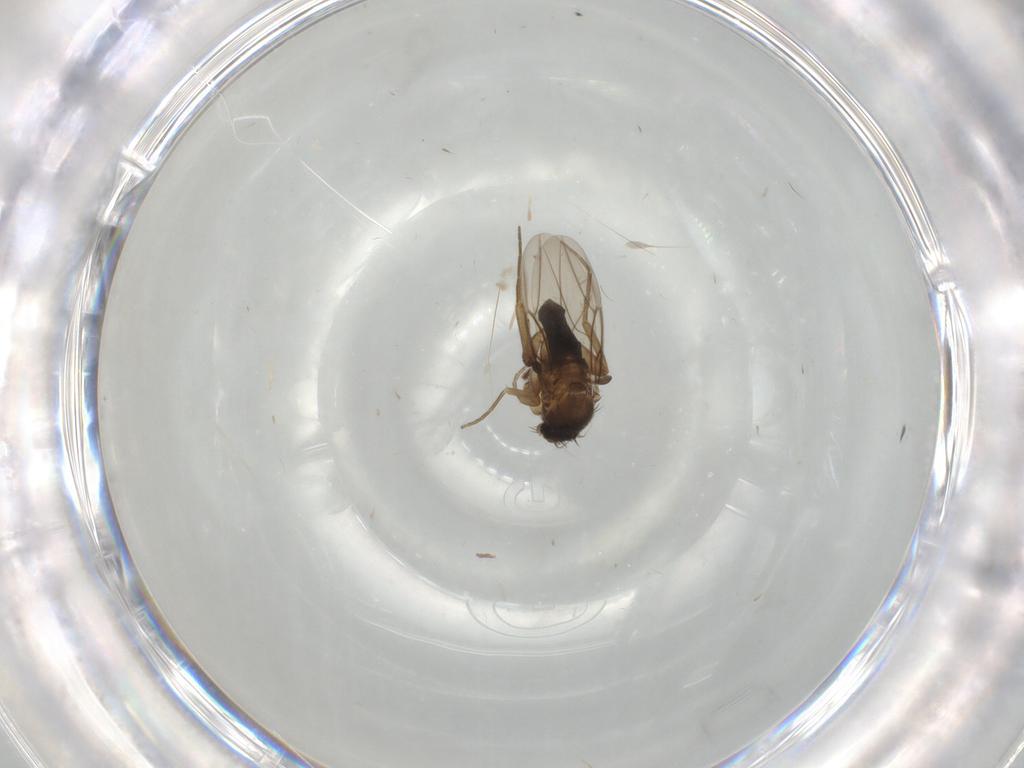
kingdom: Animalia
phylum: Arthropoda
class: Insecta
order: Diptera
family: Phoridae
